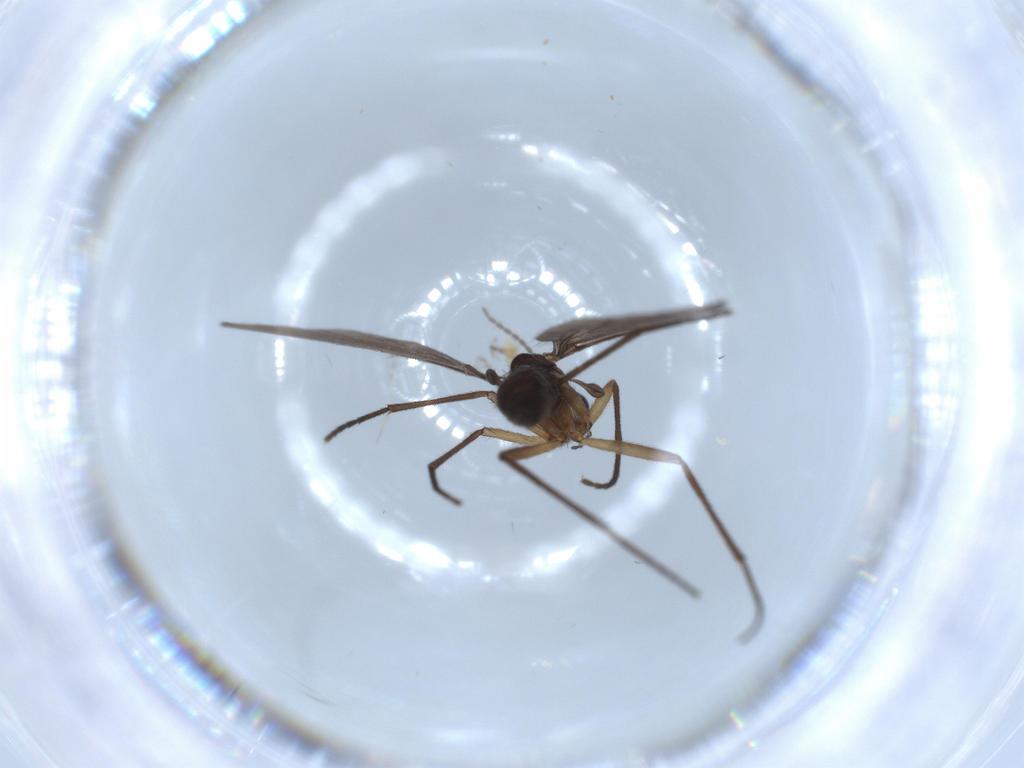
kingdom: Animalia
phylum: Arthropoda
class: Insecta
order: Diptera
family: Sciaridae
